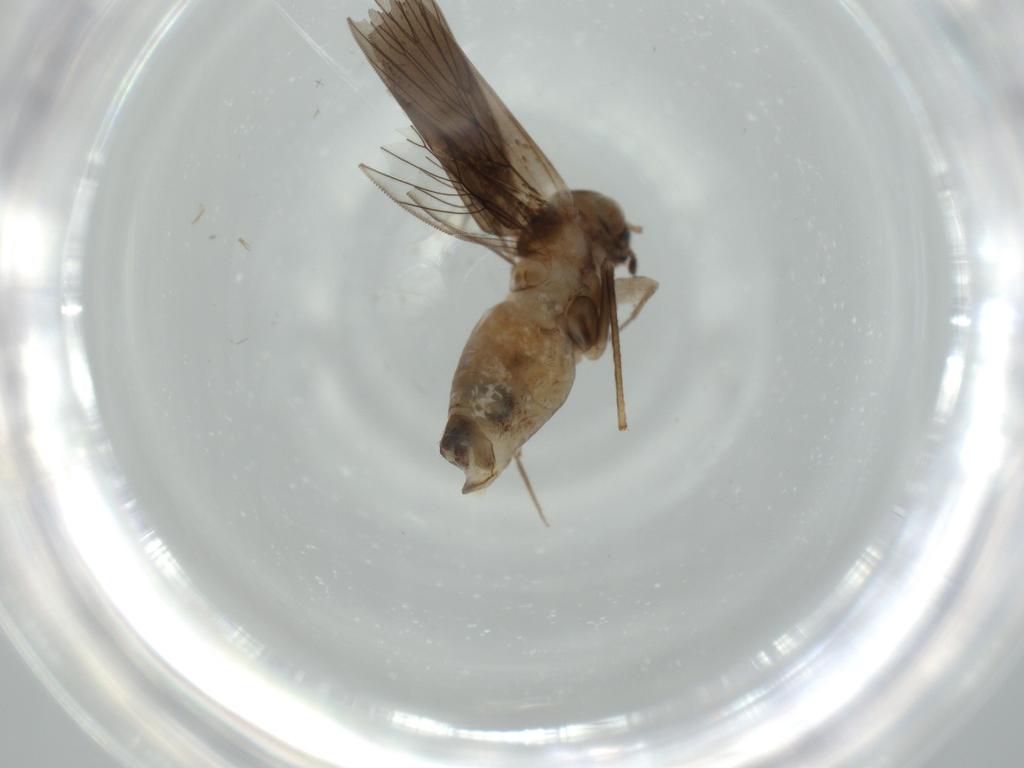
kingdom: Animalia
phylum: Arthropoda
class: Insecta
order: Psocodea
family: Lepidopsocidae
